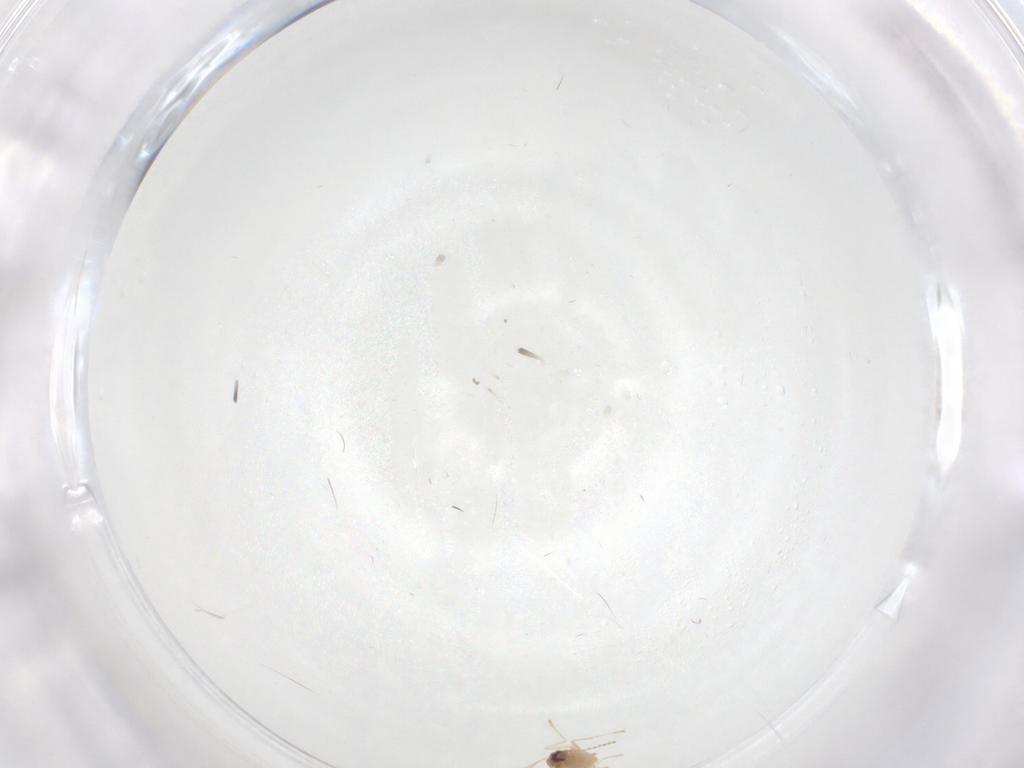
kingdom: Animalia
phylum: Arthropoda
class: Insecta
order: Diptera
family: Cecidomyiidae
